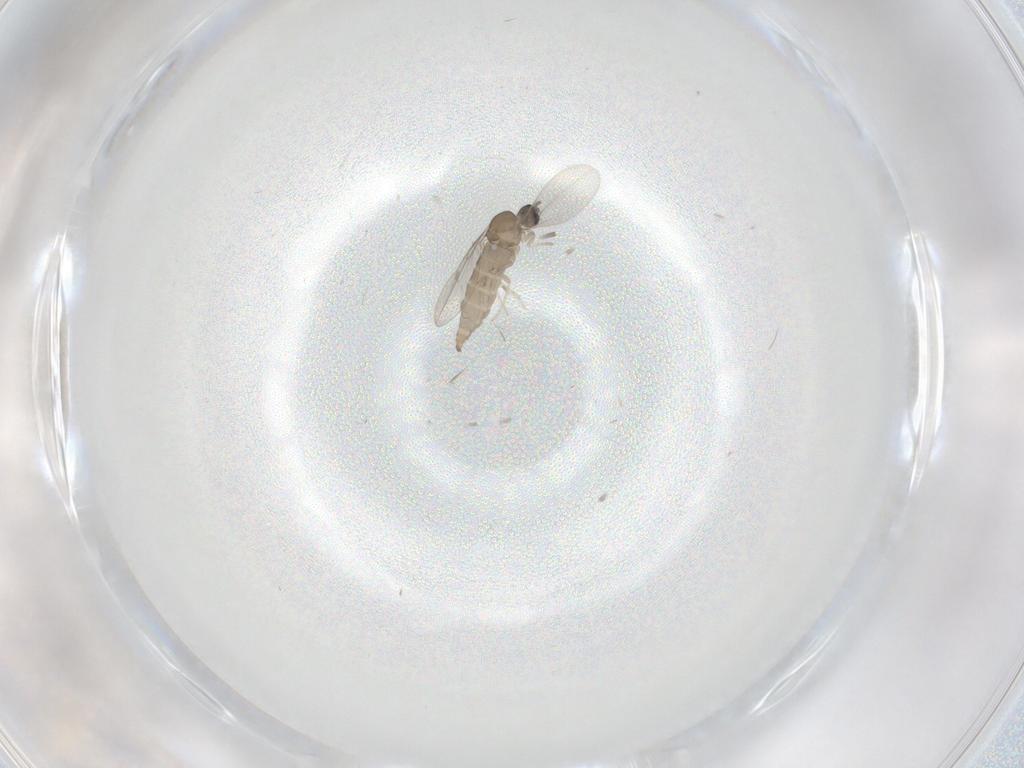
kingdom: Animalia
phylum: Arthropoda
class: Insecta
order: Diptera
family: Cecidomyiidae
